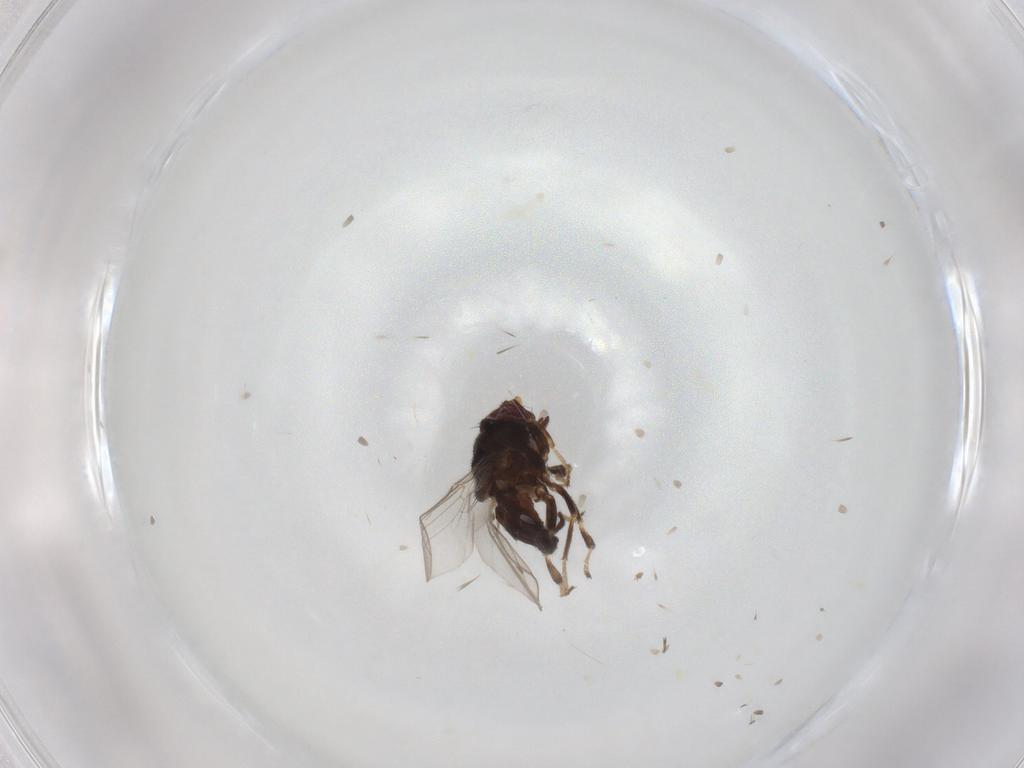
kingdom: Animalia
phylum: Arthropoda
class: Insecta
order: Diptera
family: Chloropidae
